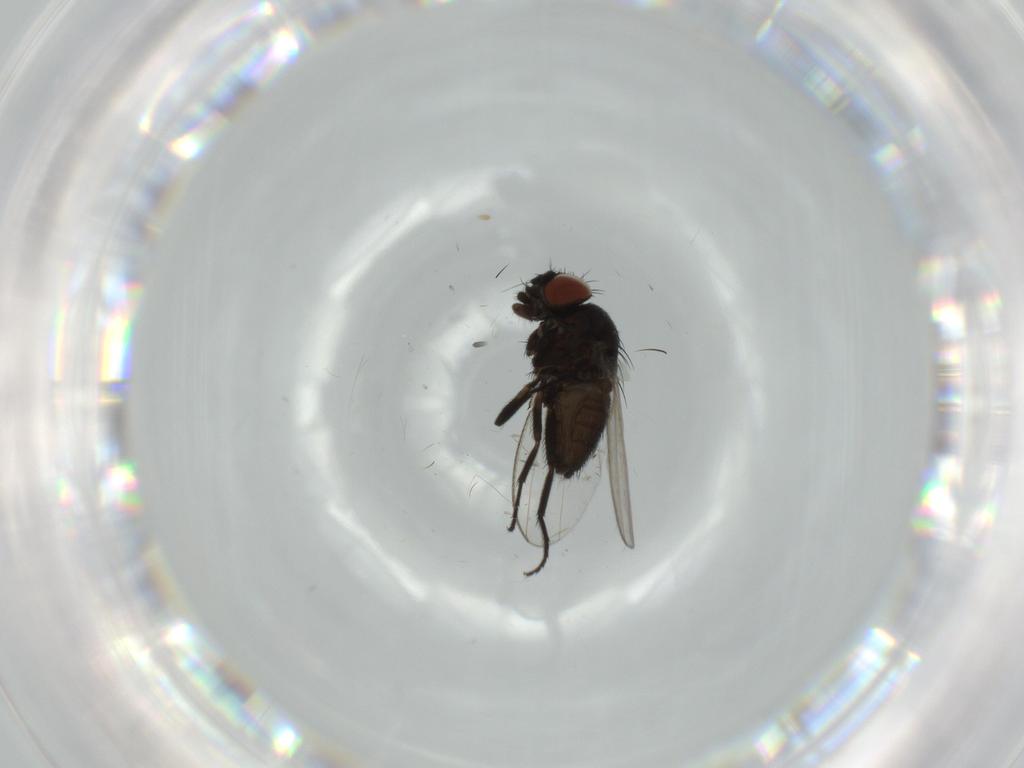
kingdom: Animalia
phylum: Arthropoda
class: Insecta
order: Diptera
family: Milichiidae
